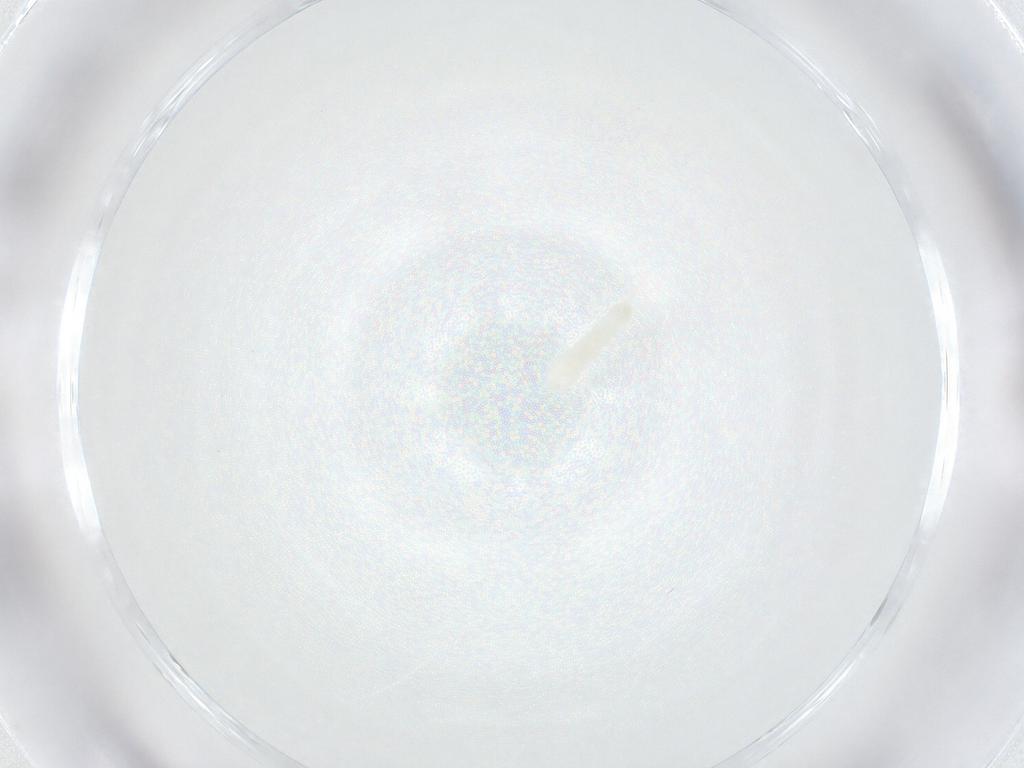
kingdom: Animalia
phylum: Arthropoda
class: Collembola
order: Poduromorpha
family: Onychiuridae
